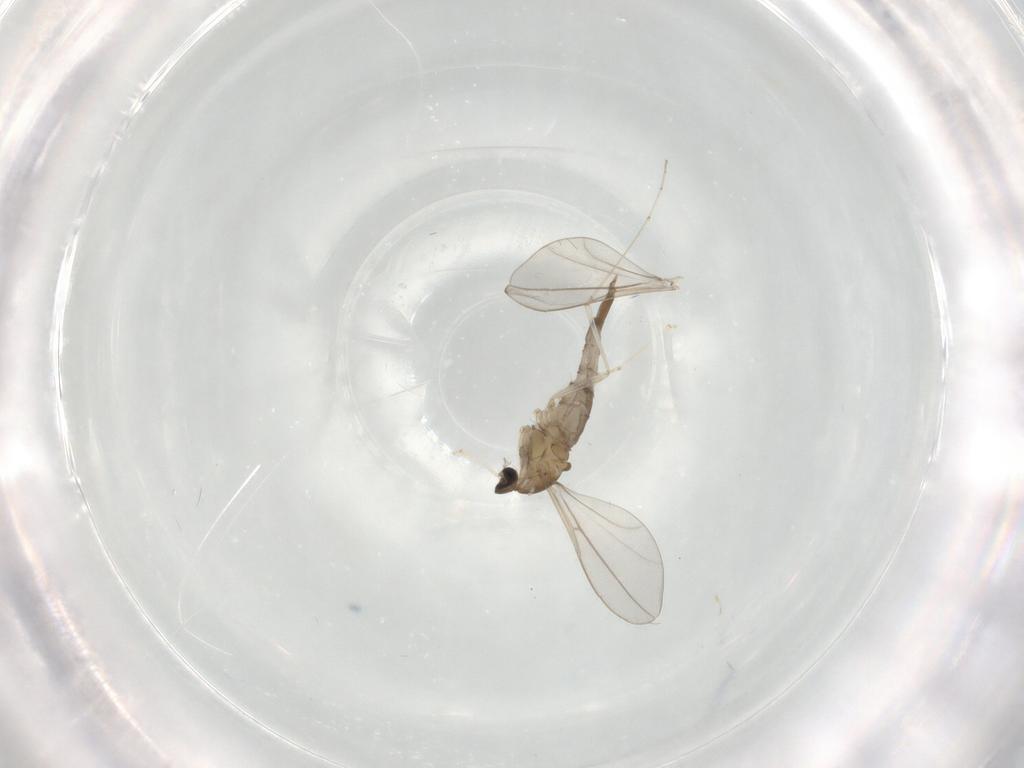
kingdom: Animalia
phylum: Arthropoda
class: Insecta
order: Diptera
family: Cecidomyiidae
